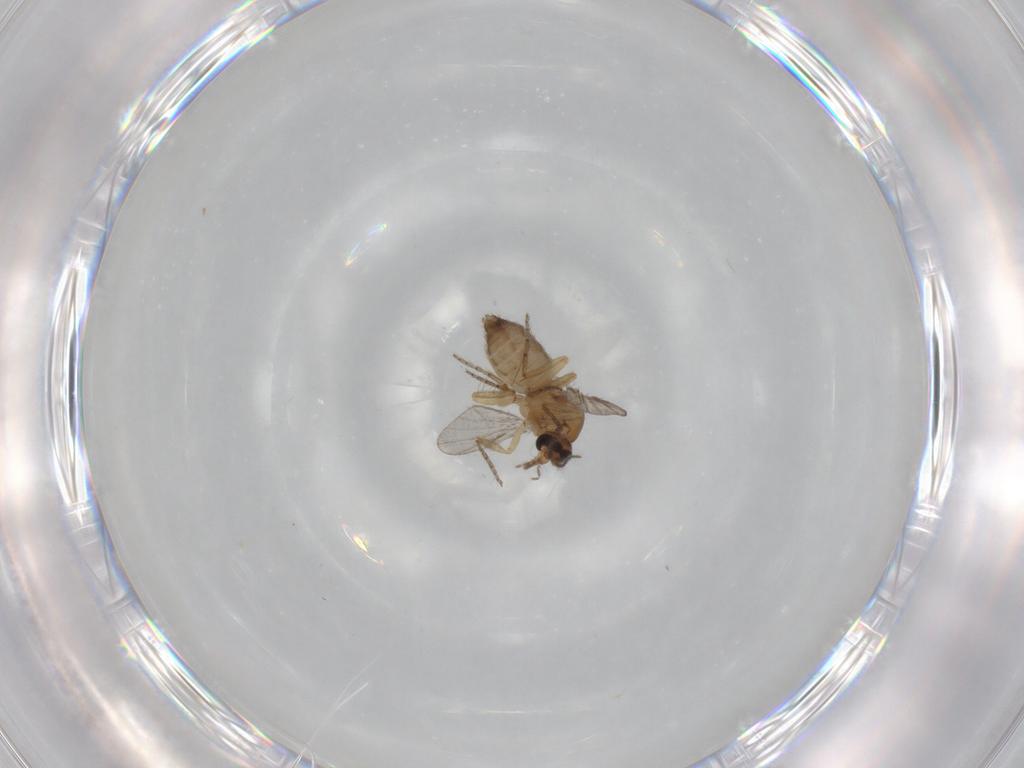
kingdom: Animalia
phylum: Arthropoda
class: Insecta
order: Diptera
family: Ceratopogonidae
